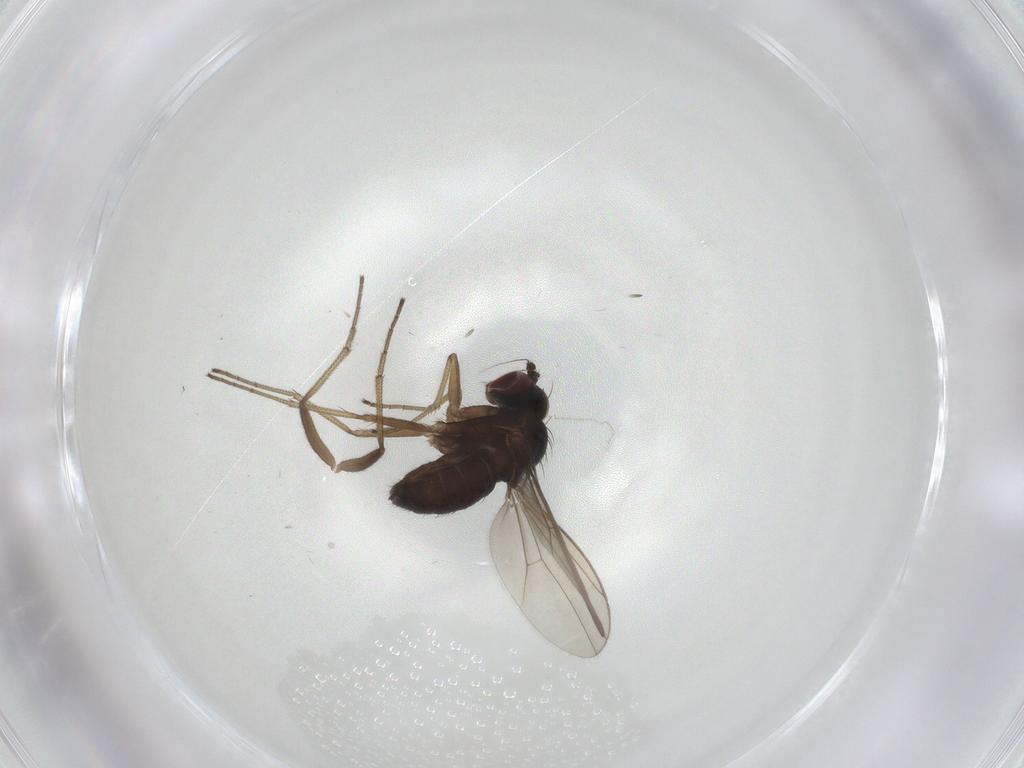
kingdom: Animalia
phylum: Arthropoda
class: Insecta
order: Diptera
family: Dolichopodidae
